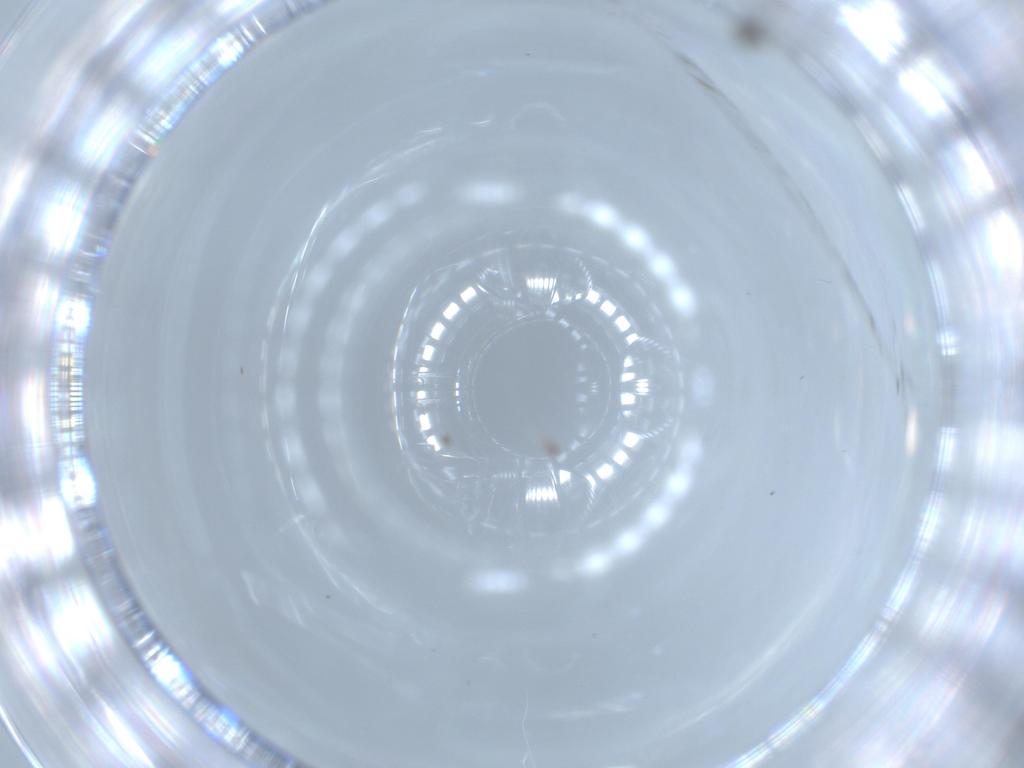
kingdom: Animalia
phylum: Arthropoda
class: Insecta
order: Diptera
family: Cecidomyiidae
